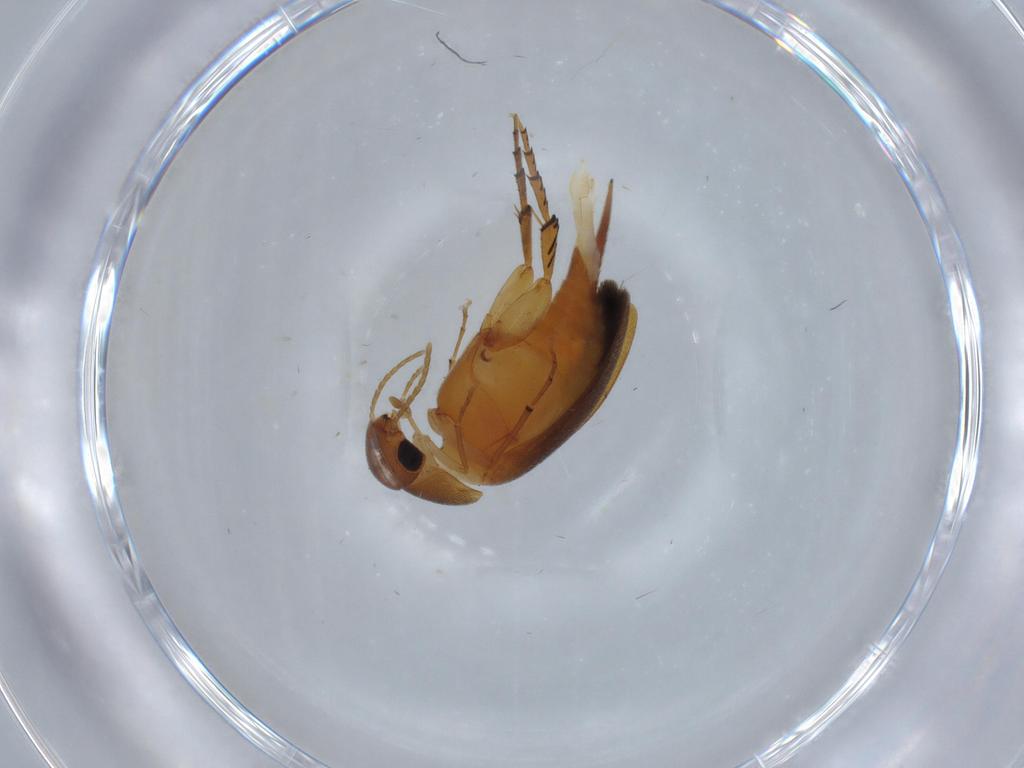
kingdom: Animalia
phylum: Arthropoda
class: Insecta
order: Coleoptera
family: Mordellidae
